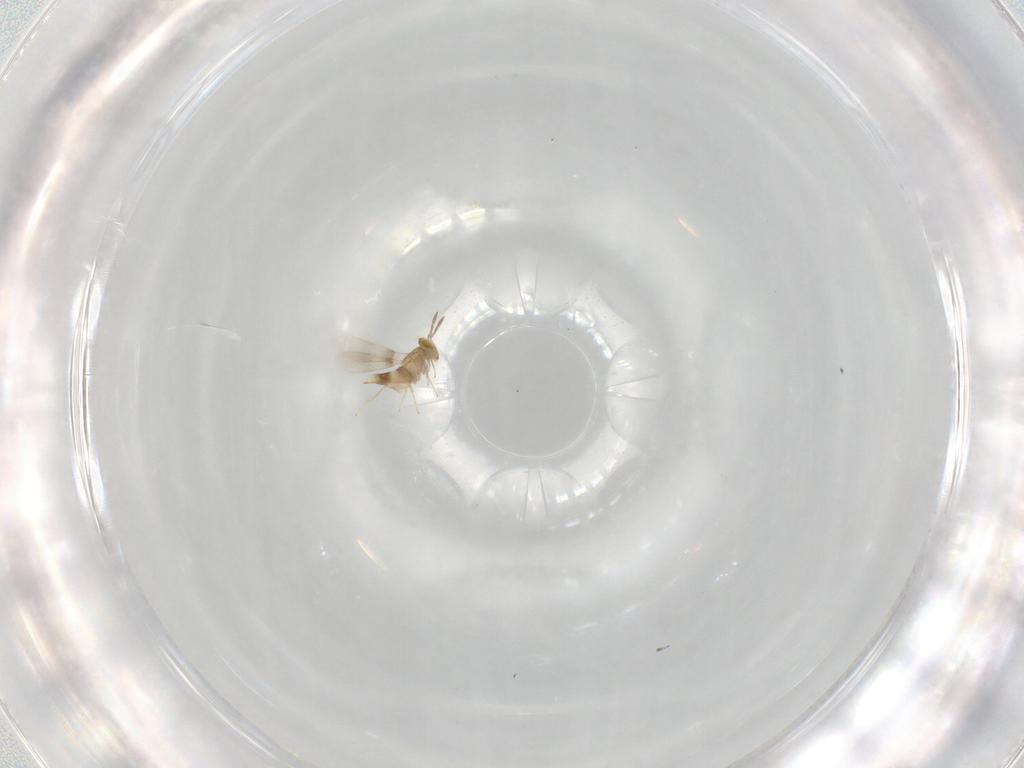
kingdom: Animalia
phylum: Arthropoda
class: Insecta
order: Hymenoptera
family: Aphelinidae
